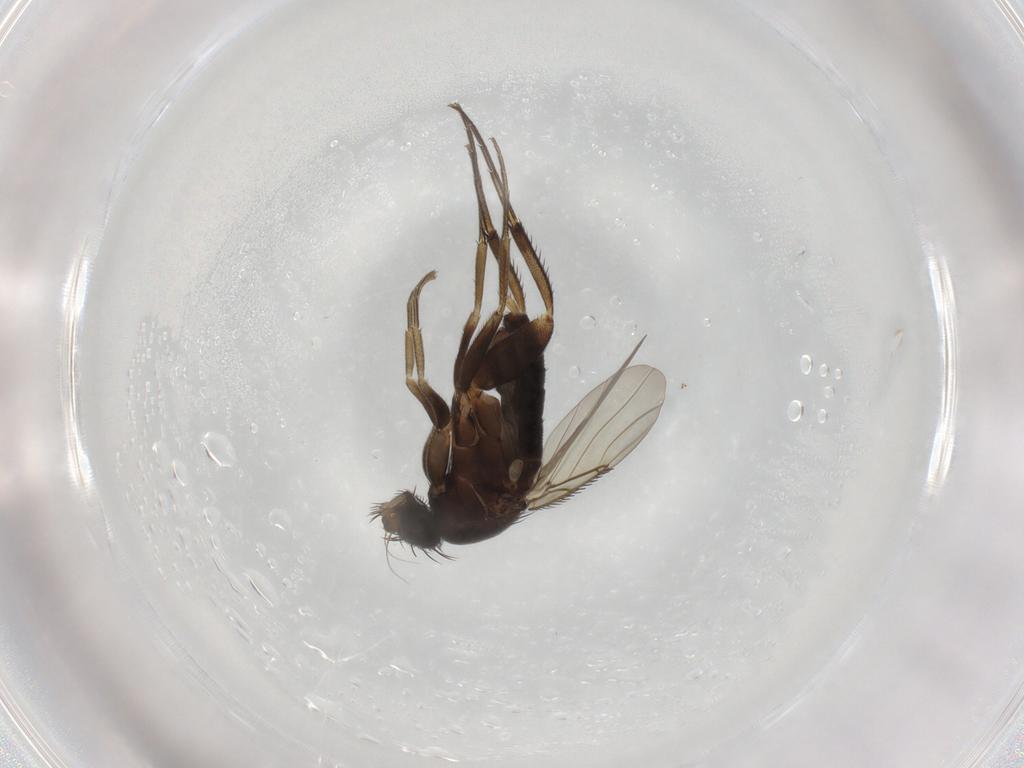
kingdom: Animalia
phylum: Arthropoda
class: Insecta
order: Diptera
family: Phoridae
